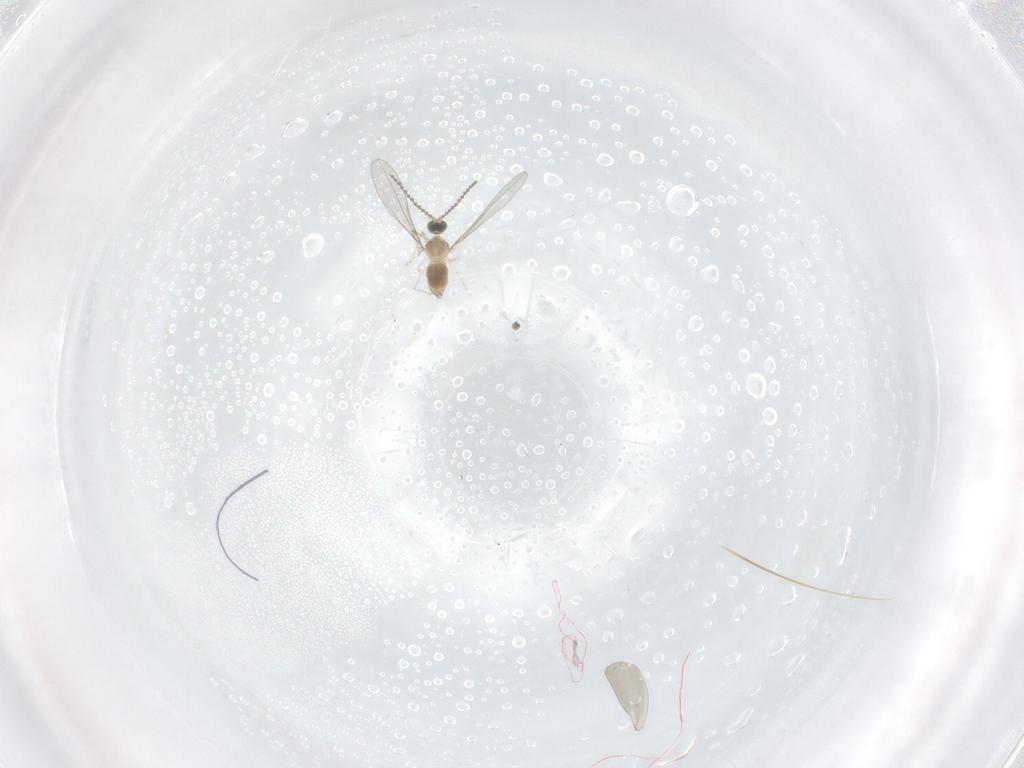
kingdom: Animalia
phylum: Arthropoda
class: Insecta
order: Diptera
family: Cecidomyiidae
